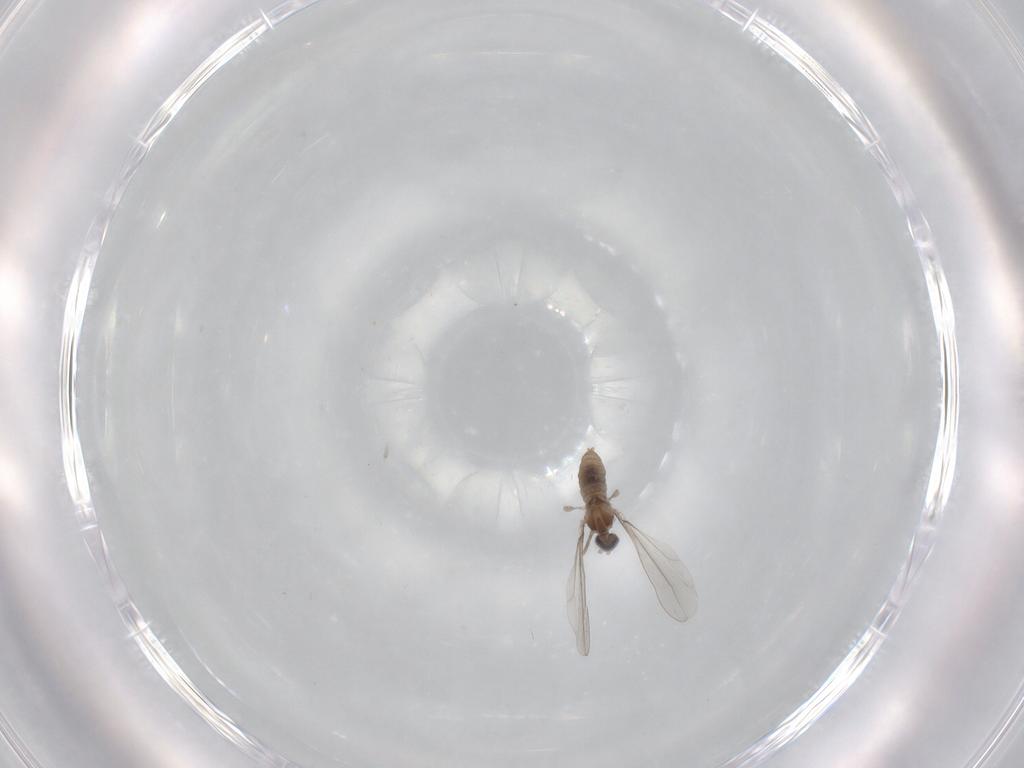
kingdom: Animalia
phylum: Arthropoda
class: Insecta
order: Diptera
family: Cecidomyiidae
